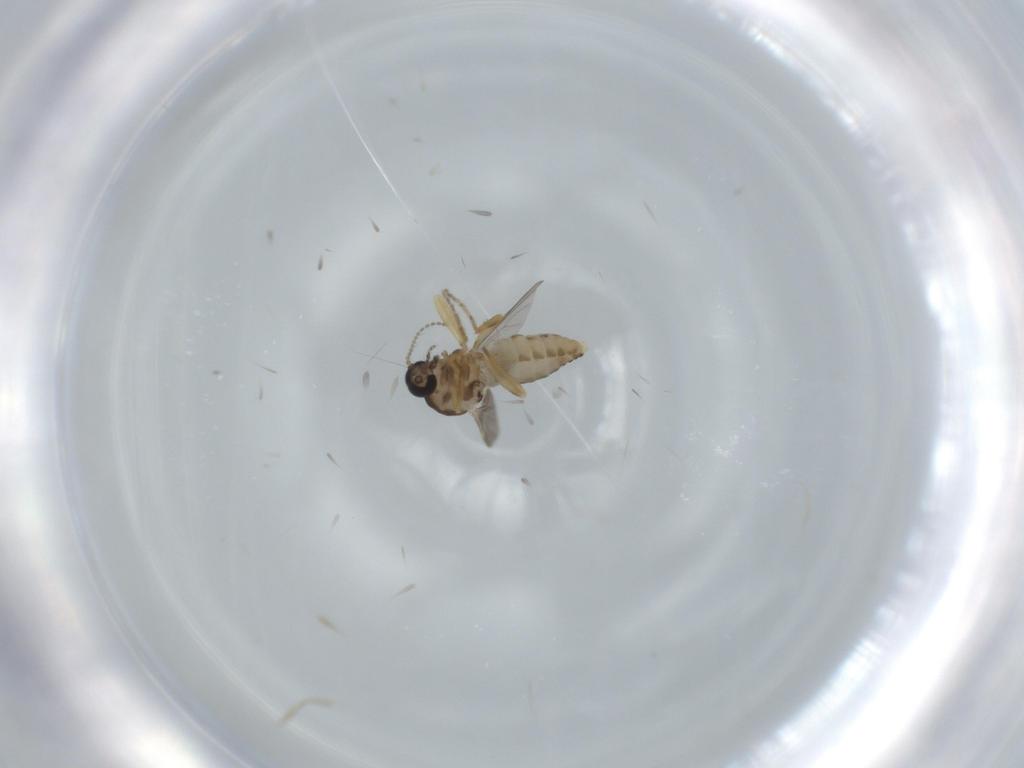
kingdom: Animalia
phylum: Arthropoda
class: Insecta
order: Diptera
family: Ceratopogonidae
